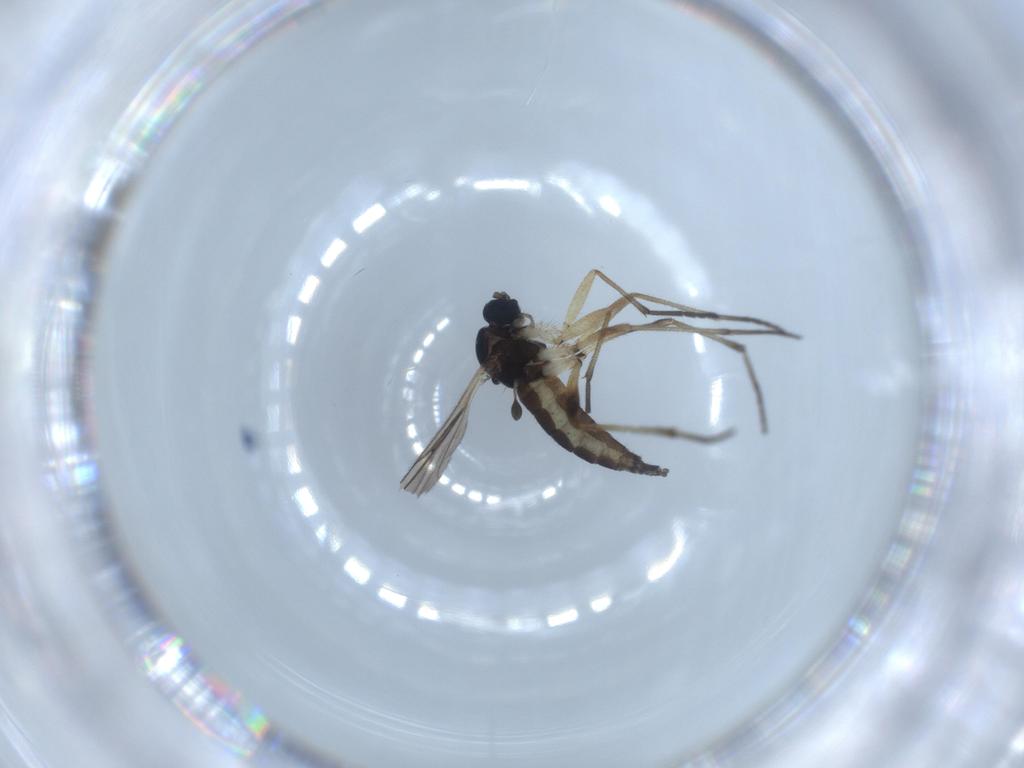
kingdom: Animalia
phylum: Arthropoda
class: Insecta
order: Diptera
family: Sciaridae
